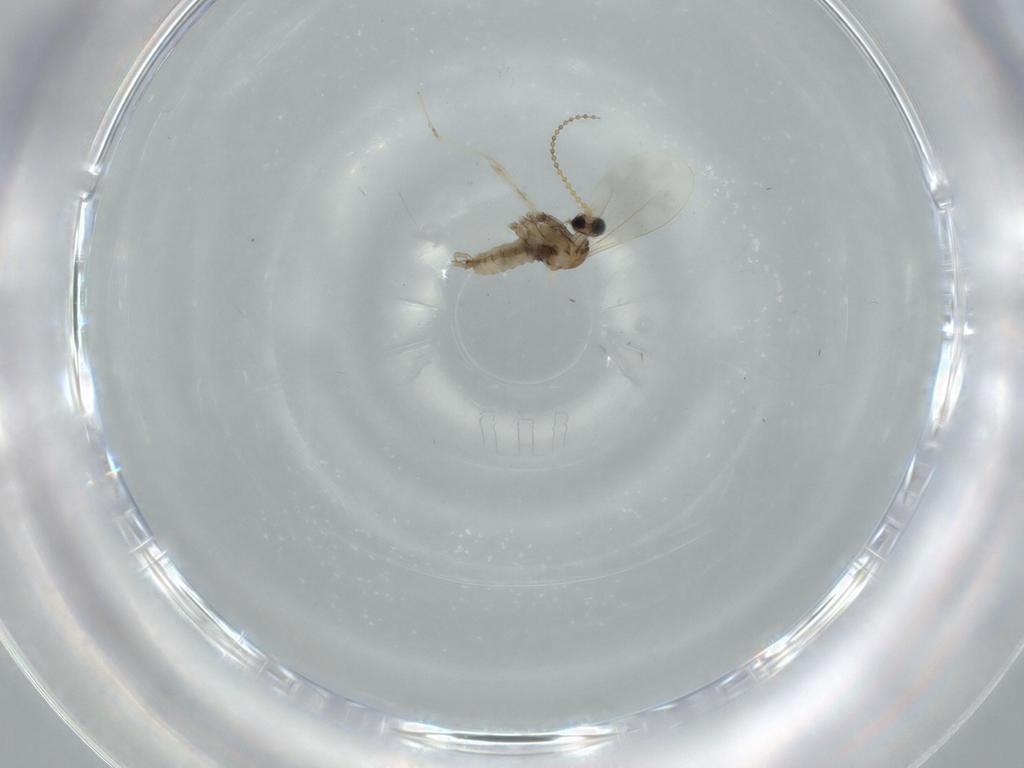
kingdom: Animalia
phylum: Arthropoda
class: Insecta
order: Diptera
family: Cecidomyiidae
